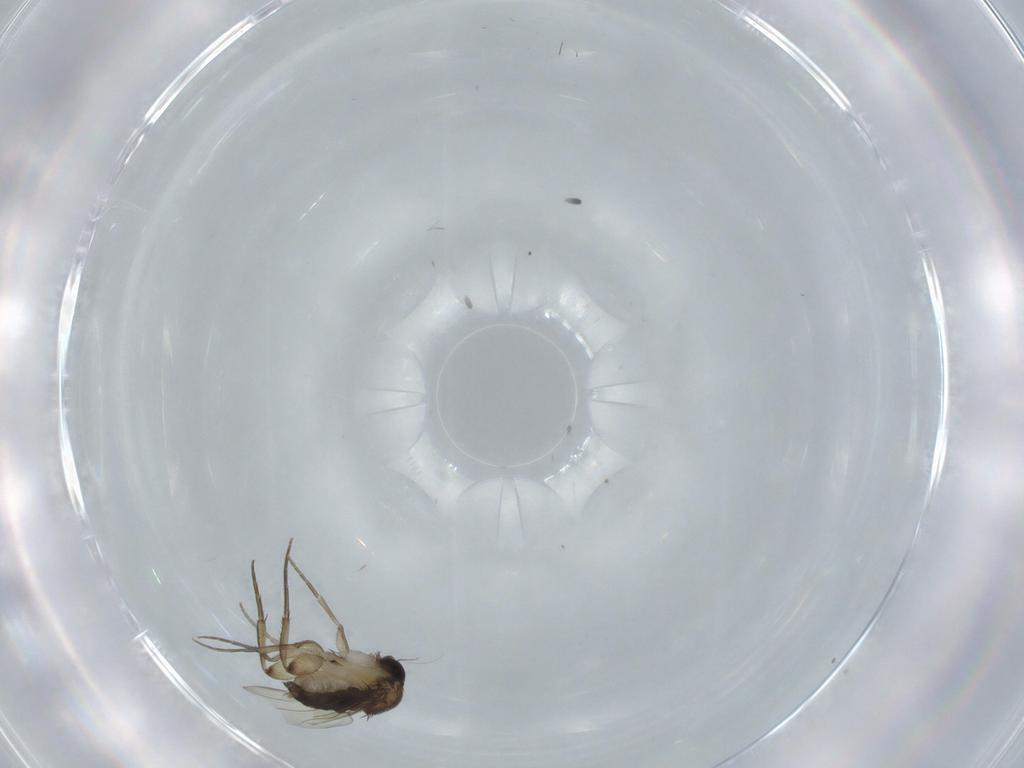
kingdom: Animalia
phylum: Arthropoda
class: Insecta
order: Diptera
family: Phoridae
